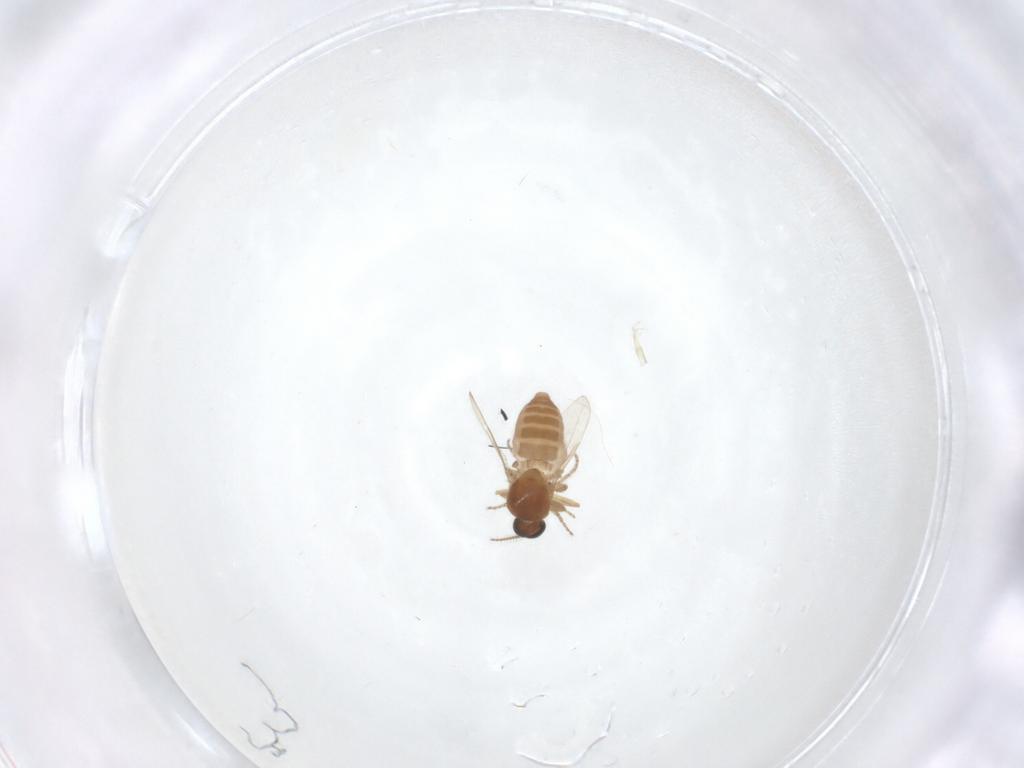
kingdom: Animalia
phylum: Arthropoda
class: Insecta
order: Diptera
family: Ceratopogonidae
